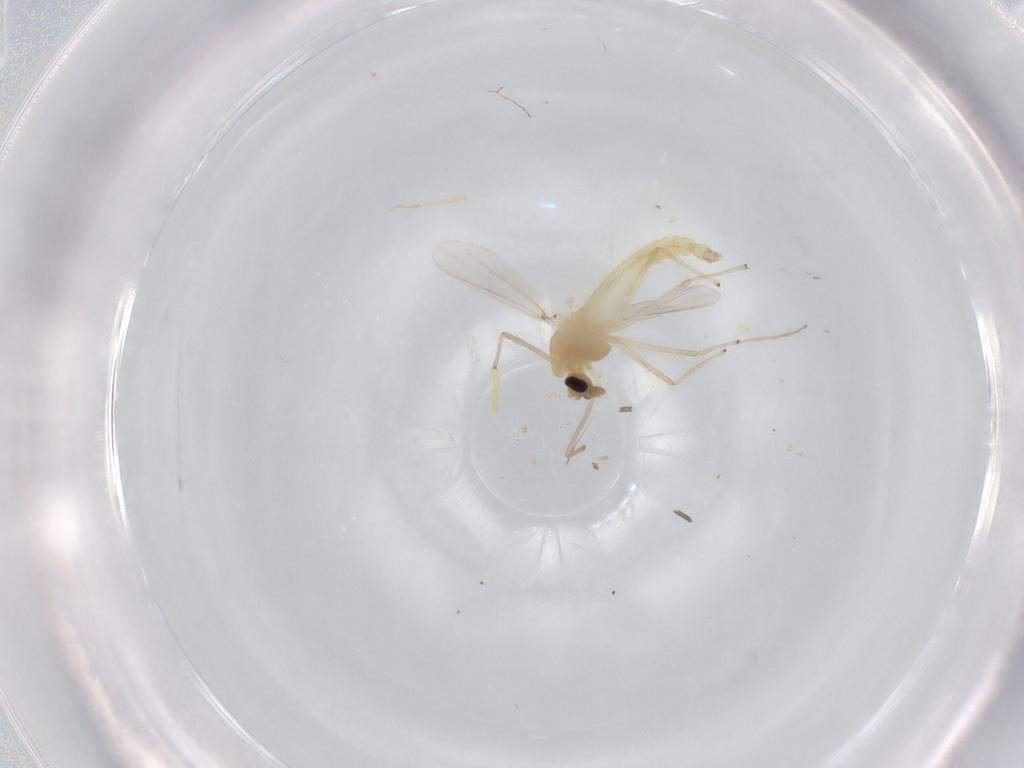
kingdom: Animalia
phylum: Arthropoda
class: Insecta
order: Diptera
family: Chironomidae
